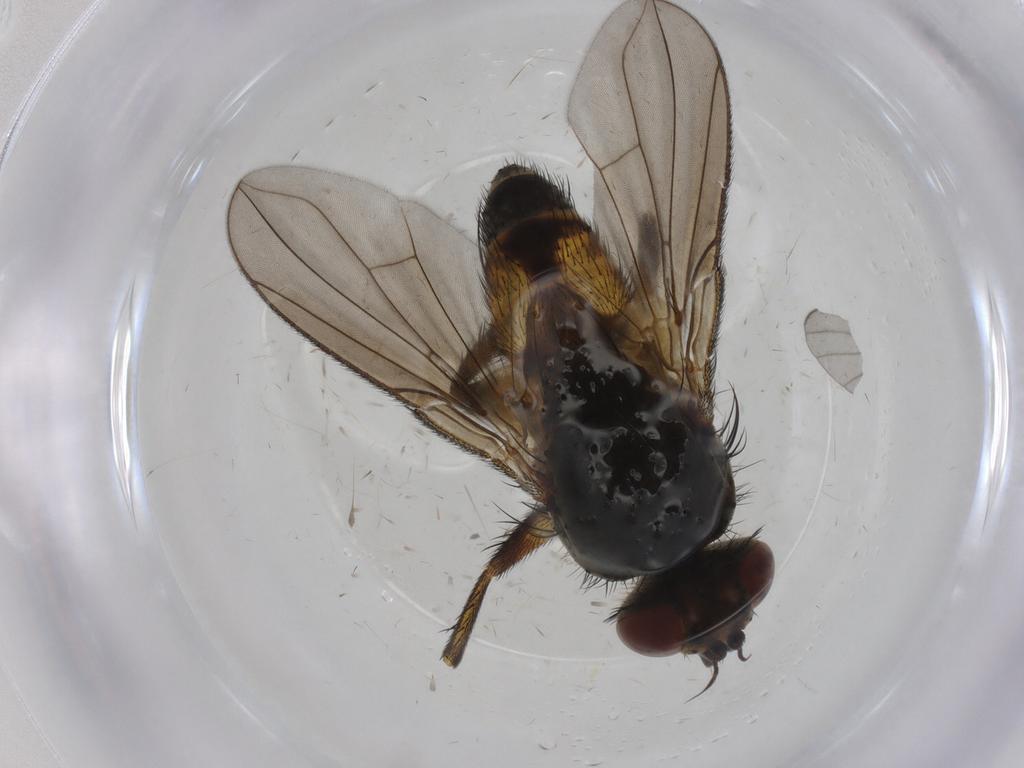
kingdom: Animalia
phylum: Arthropoda
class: Insecta
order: Diptera
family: Tachinidae
